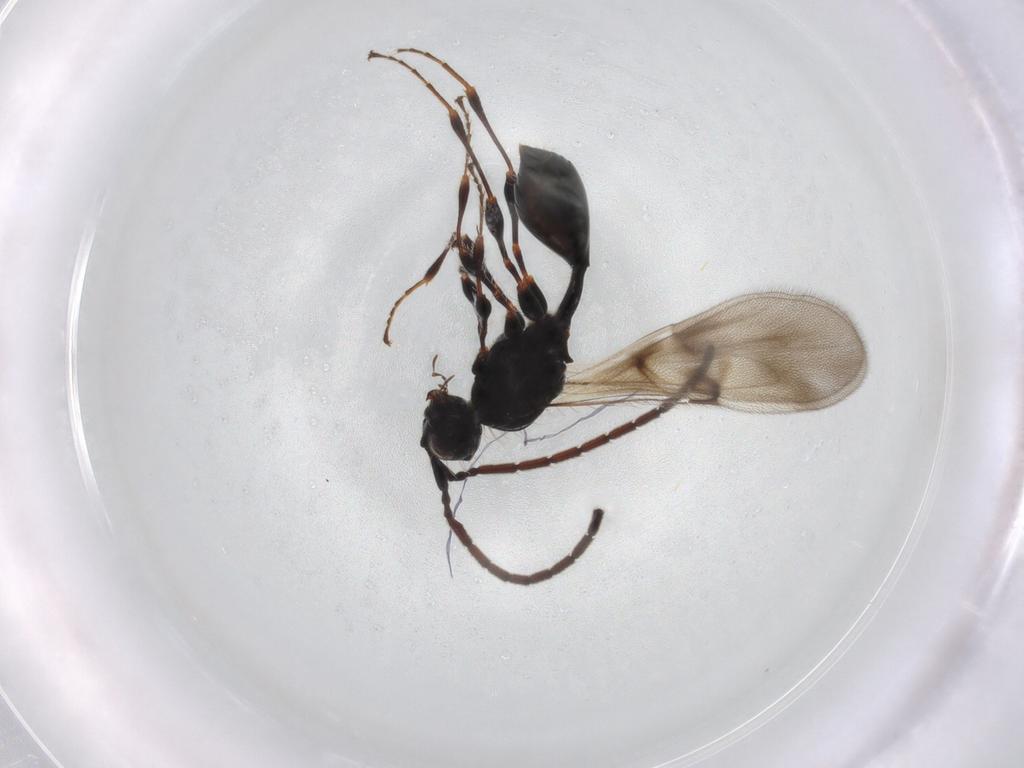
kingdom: Animalia
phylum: Arthropoda
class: Insecta
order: Hymenoptera
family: Diapriidae
